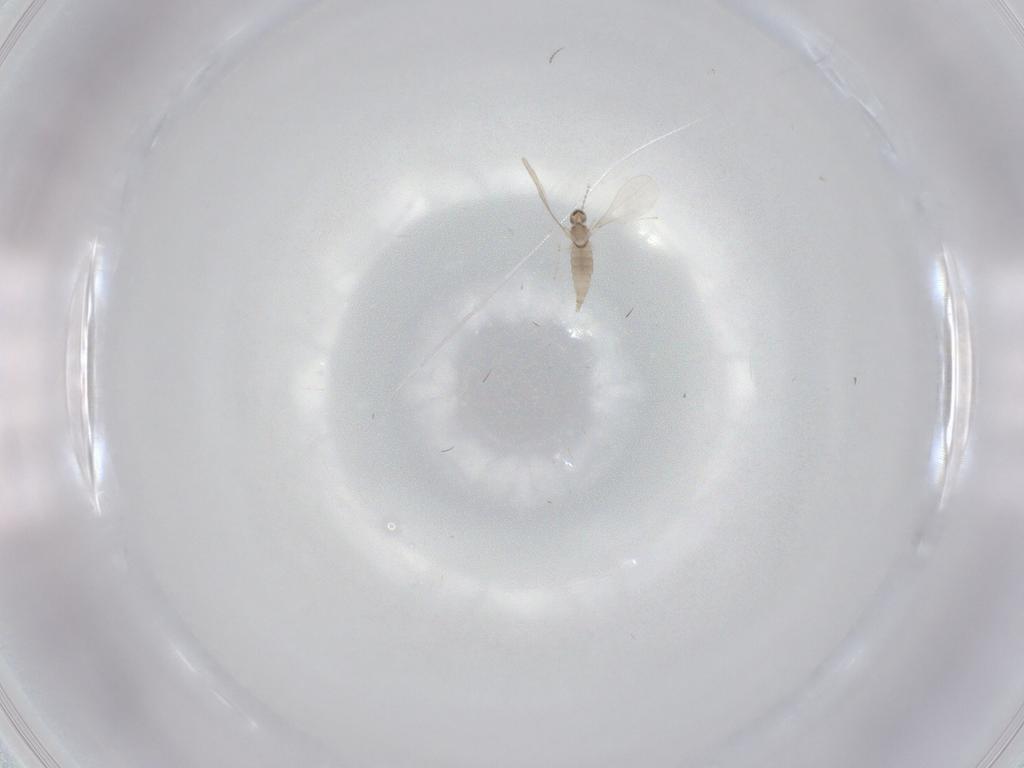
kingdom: Animalia
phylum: Arthropoda
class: Insecta
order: Diptera
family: Cecidomyiidae
